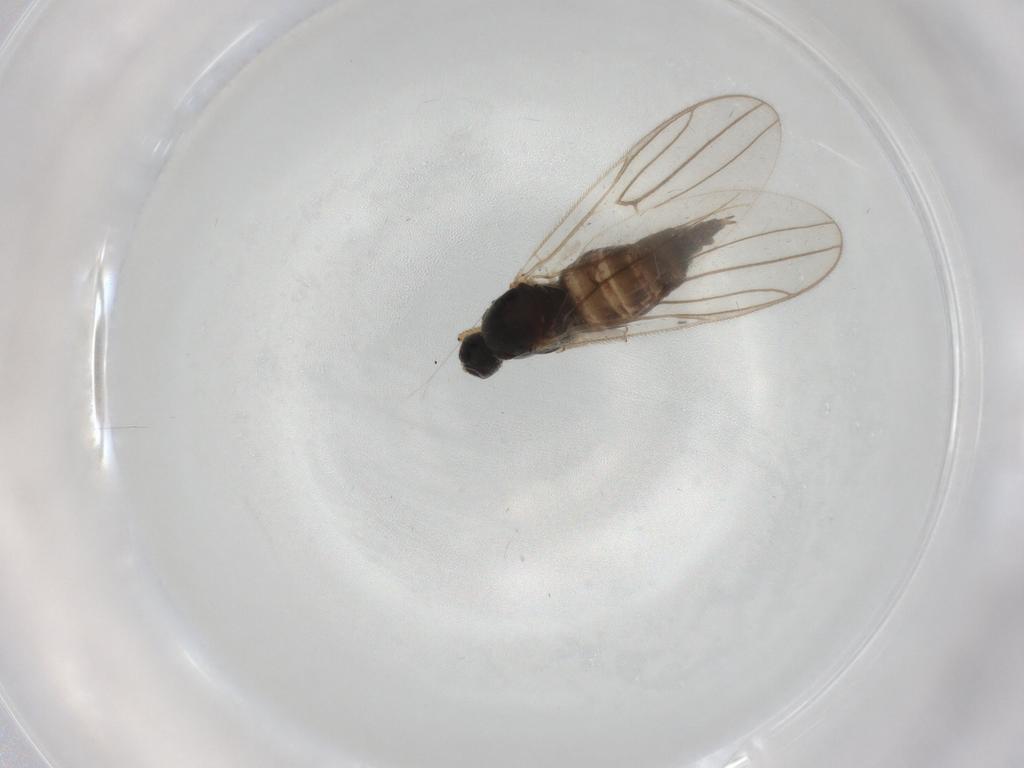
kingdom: Animalia
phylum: Arthropoda
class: Insecta
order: Diptera
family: Hybotidae
